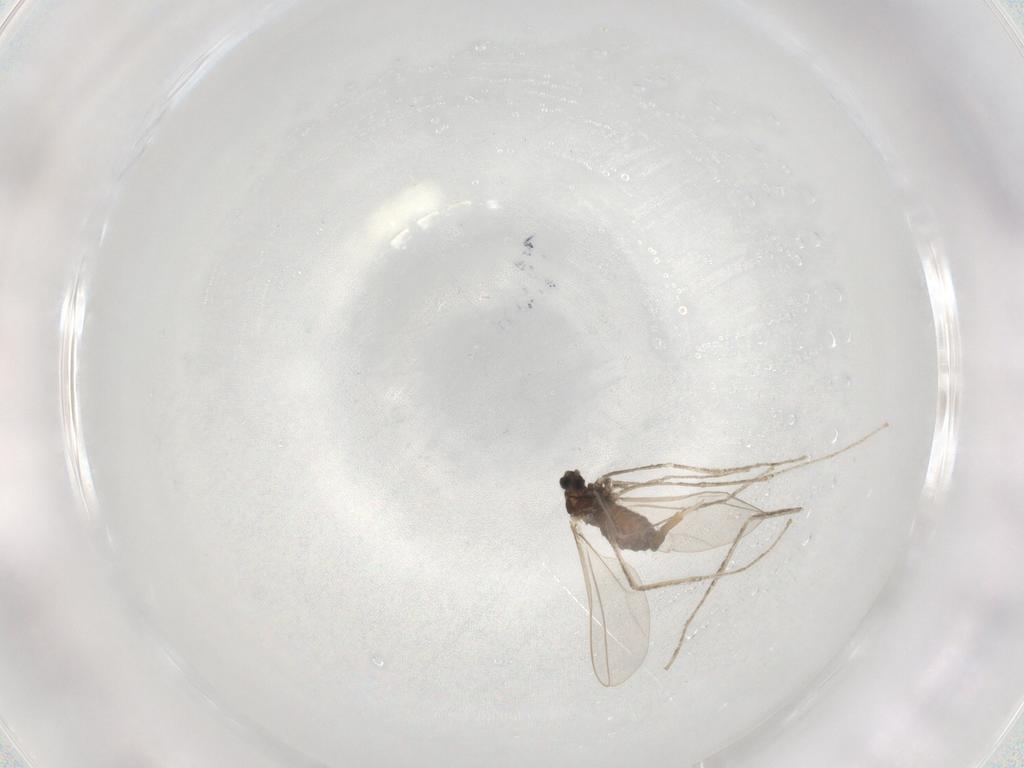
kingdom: Animalia
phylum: Arthropoda
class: Insecta
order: Diptera
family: Cecidomyiidae
